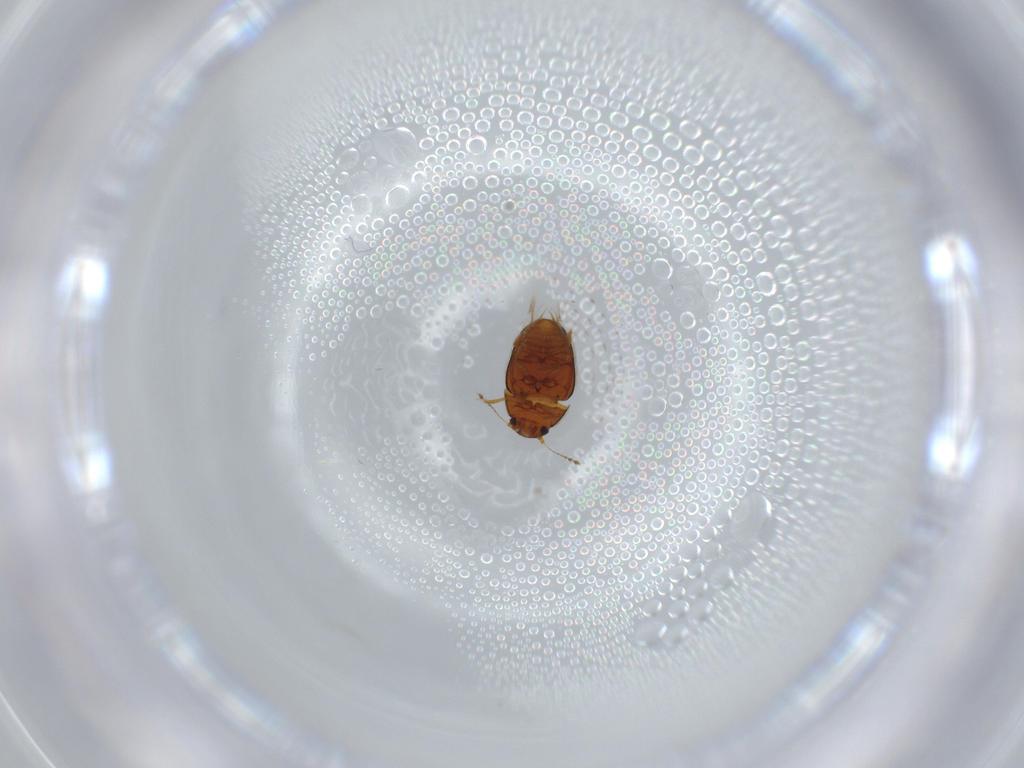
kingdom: Animalia
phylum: Arthropoda
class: Insecta
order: Coleoptera
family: Ptiliidae
